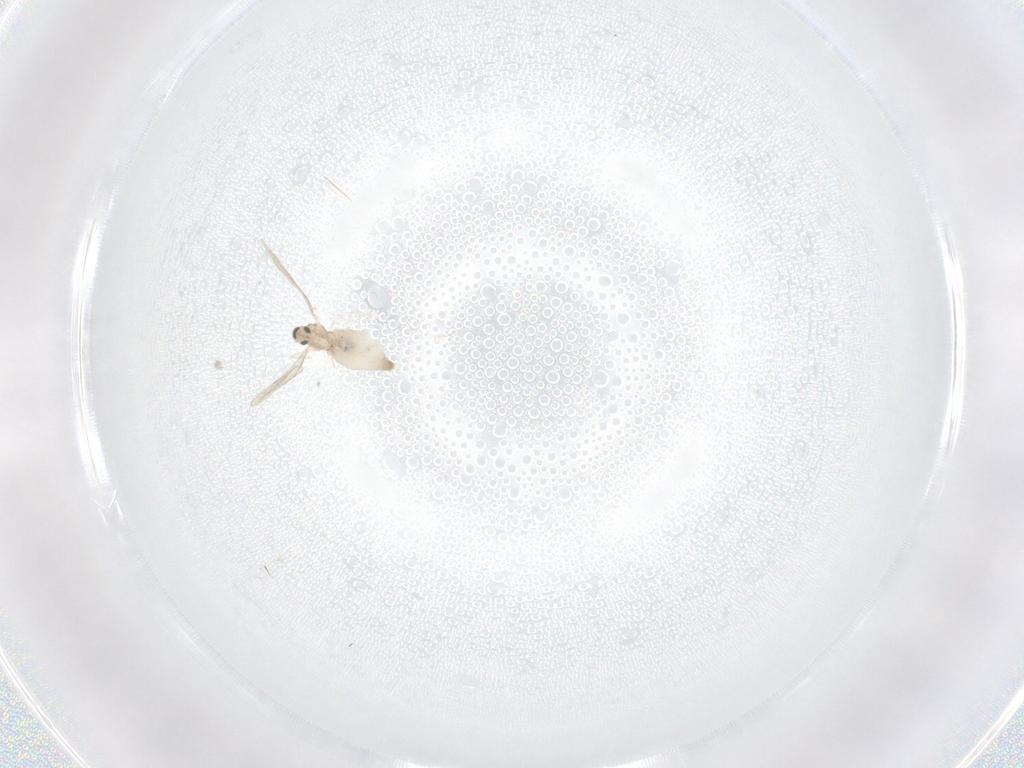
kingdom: Animalia
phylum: Arthropoda
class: Insecta
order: Diptera
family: Cecidomyiidae
